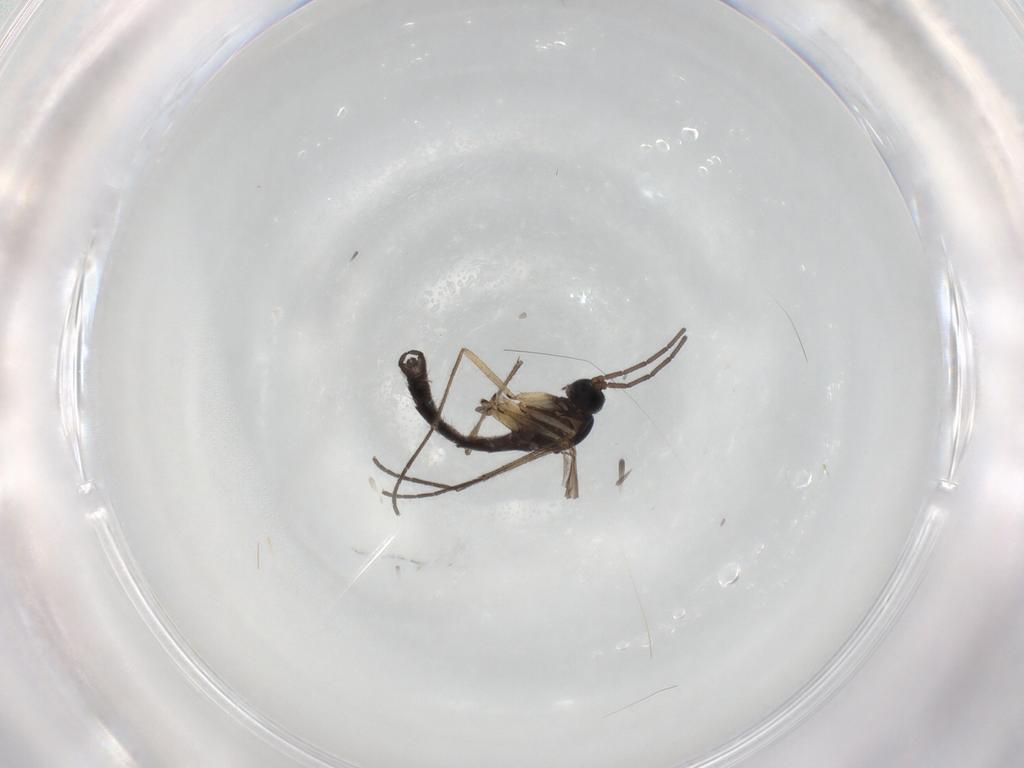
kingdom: Animalia
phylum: Arthropoda
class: Insecta
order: Diptera
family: Sciaridae
